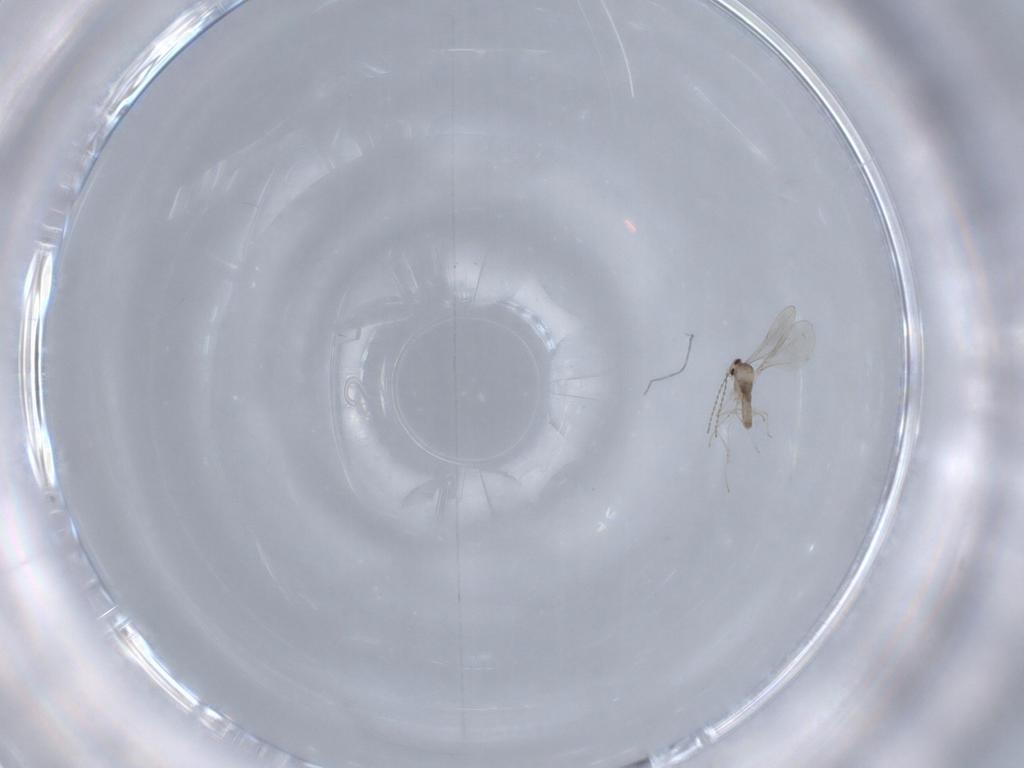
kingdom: Animalia
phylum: Arthropoda
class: Insecta
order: Diptera
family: Cecidomyiidae
